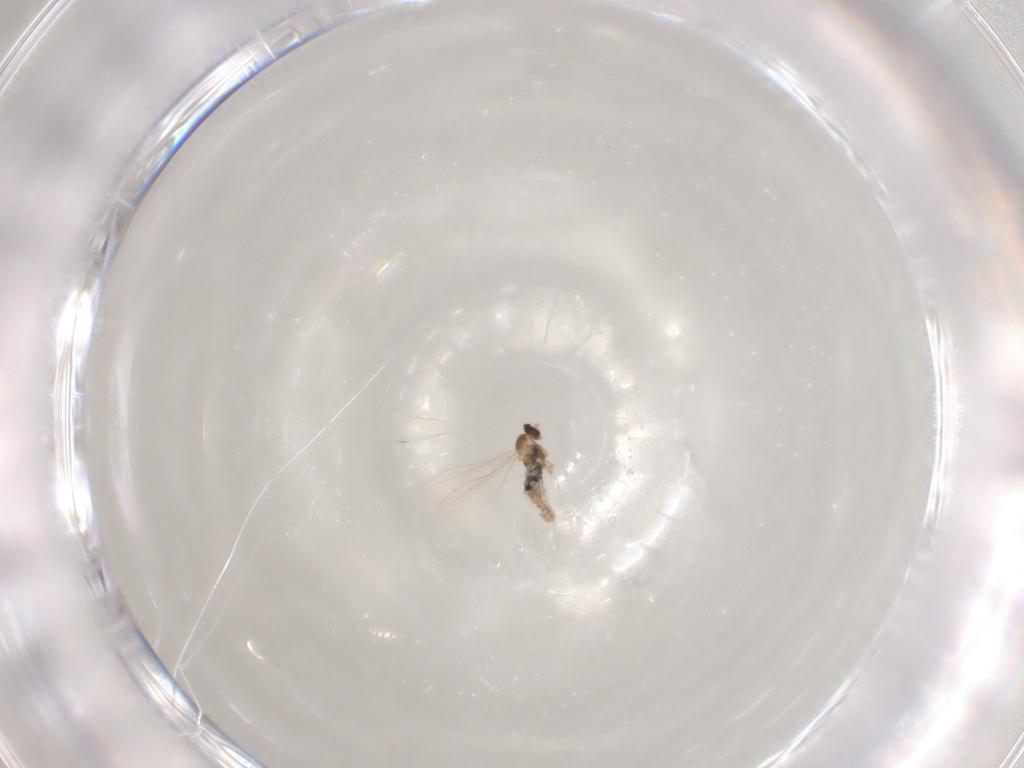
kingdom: Animalia
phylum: Arthropoda
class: Insecta
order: Diptera
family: Cecidomyiidae
